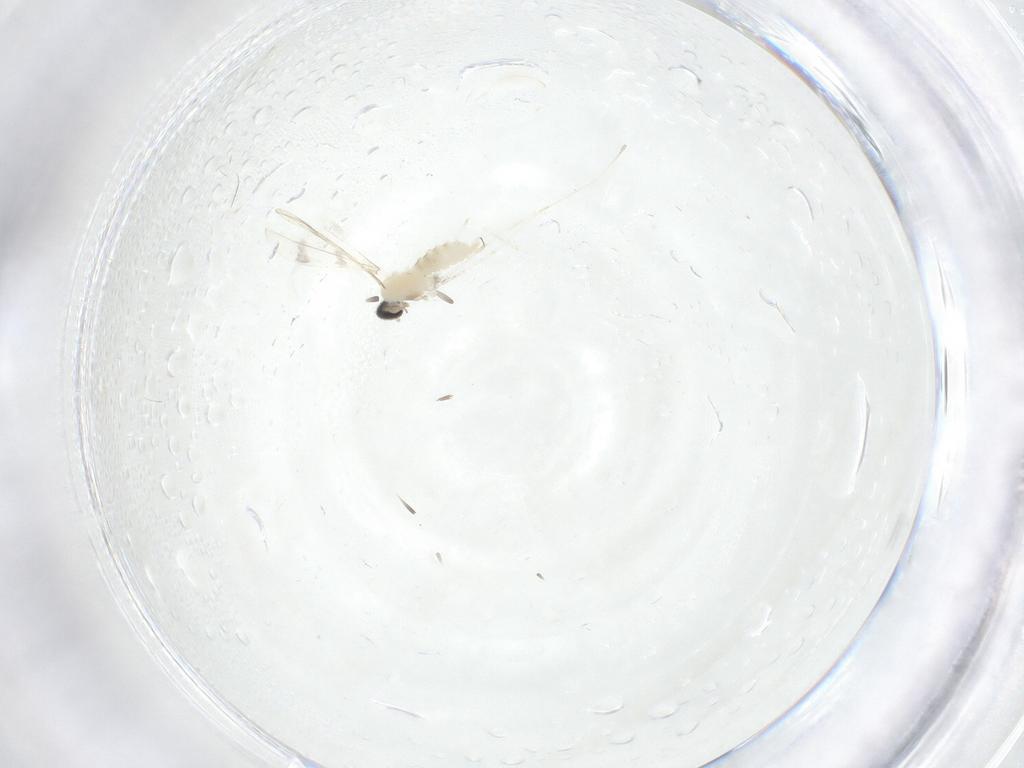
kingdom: Animalia
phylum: Arthropoda
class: Insecta
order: Diptera
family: Cecidomyiidae
